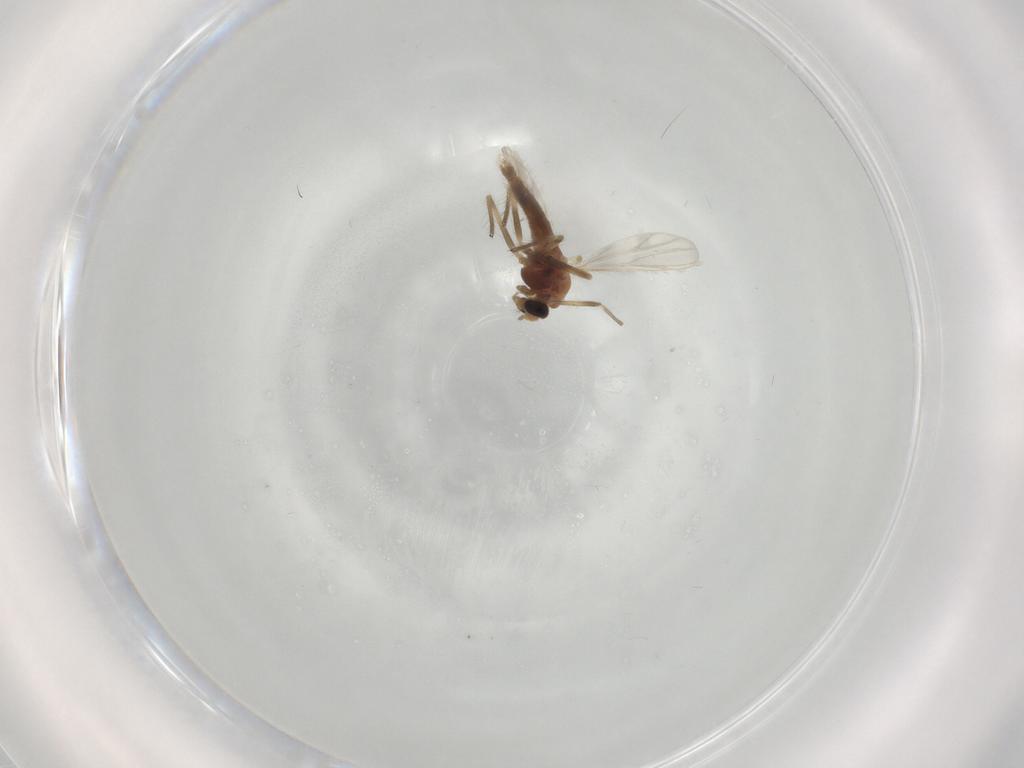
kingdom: Animalia
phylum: Arthropoda
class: Insecta
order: Diptera
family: Chironomidae
